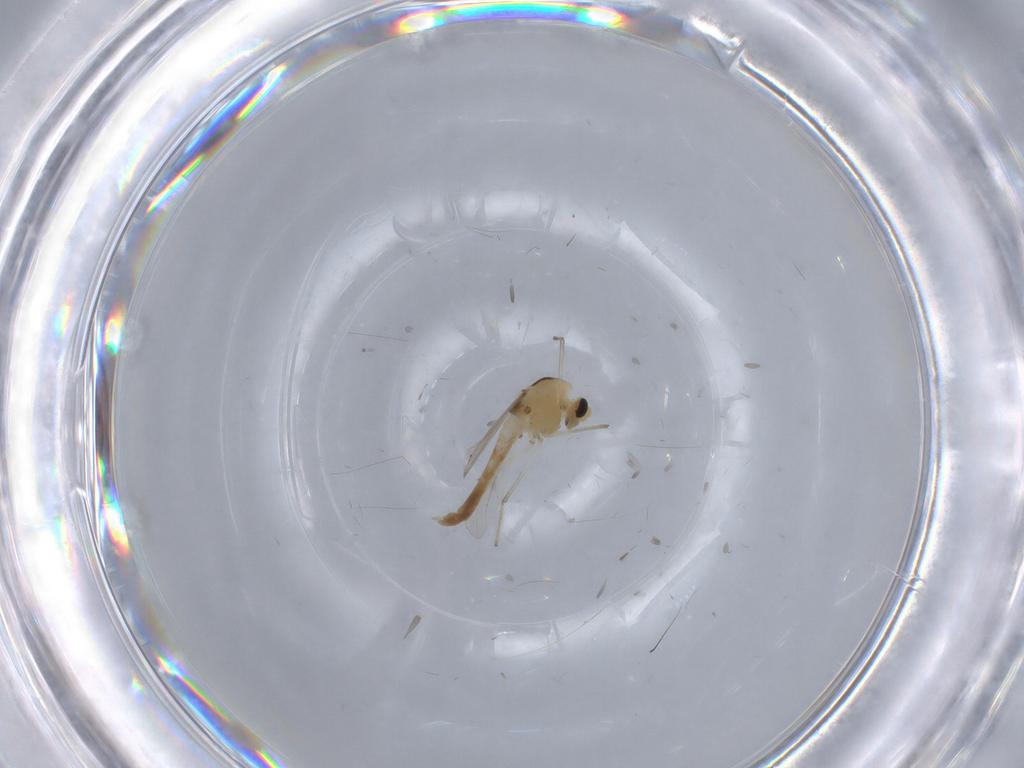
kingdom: Animalia
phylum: Arthropoda
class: Insecta
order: Diptera
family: Chironomidae
